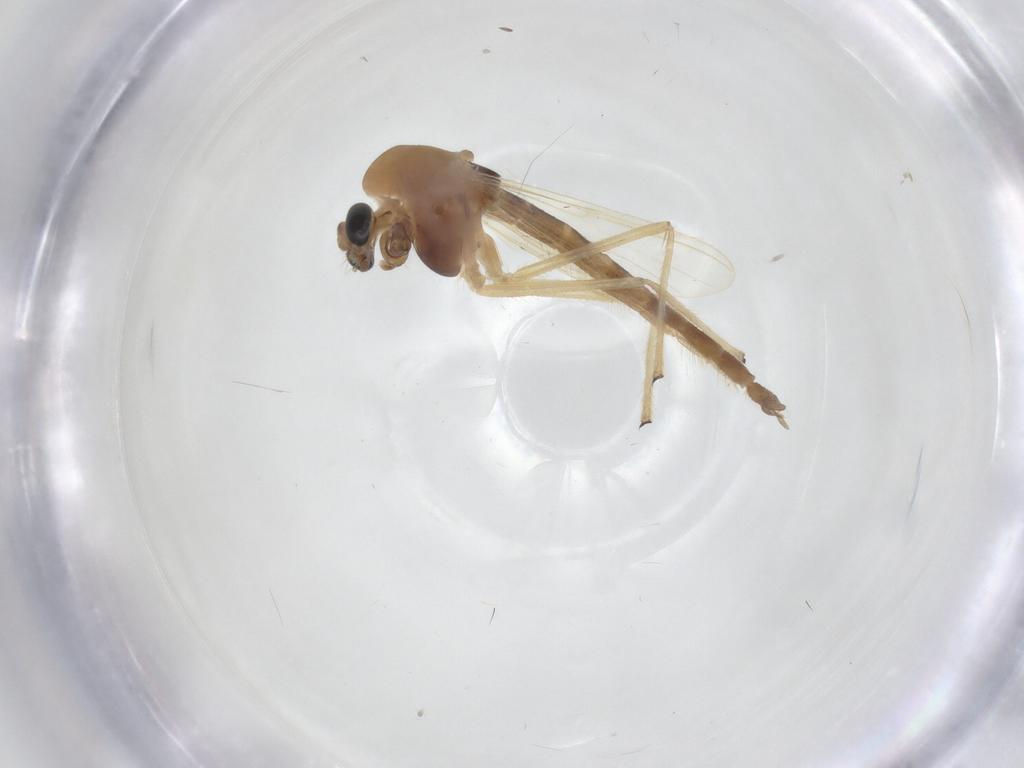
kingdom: Animalia
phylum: Arthropoda
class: Insecta
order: Diptera
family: Chironomidae
